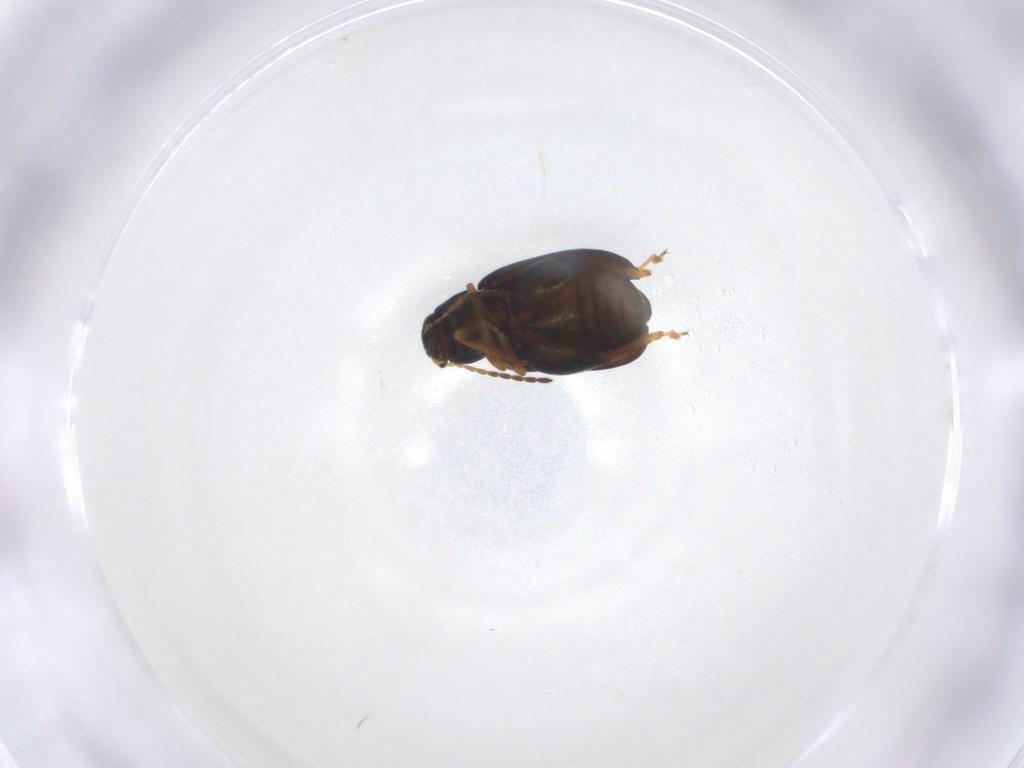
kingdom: Animalia
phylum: Arthropoda
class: Insecta
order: Coleoptera
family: Chrysomelidae
